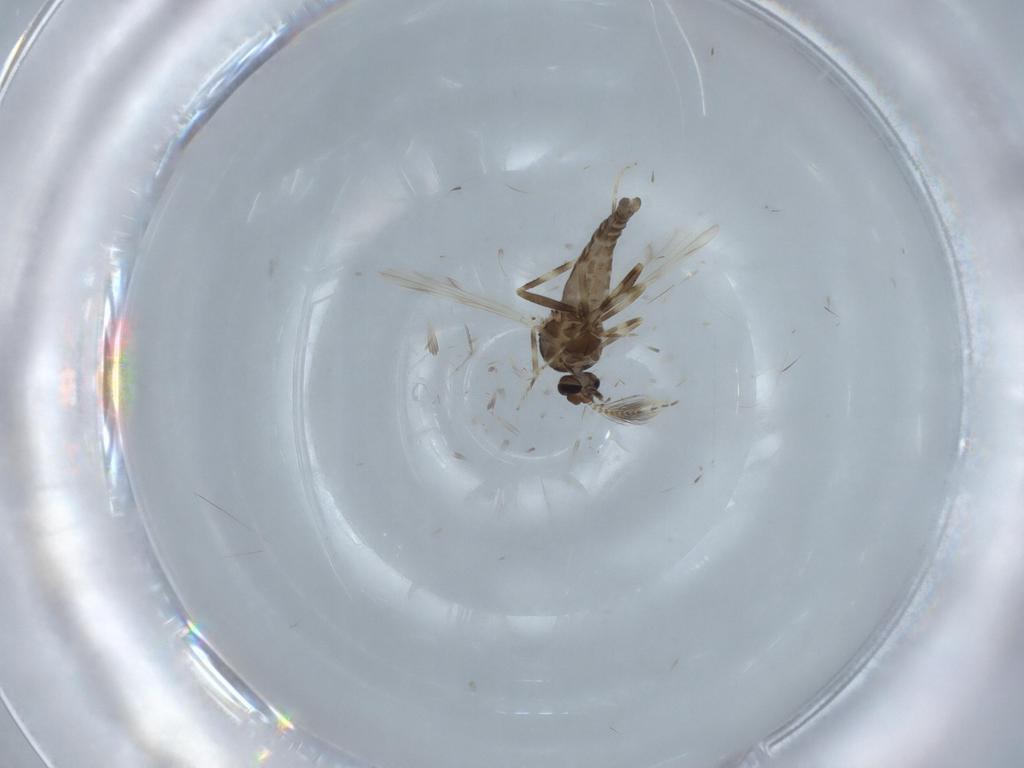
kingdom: Animalia
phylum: Arthropoda
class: Insecta
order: Diptera
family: Ceratopogonidae
